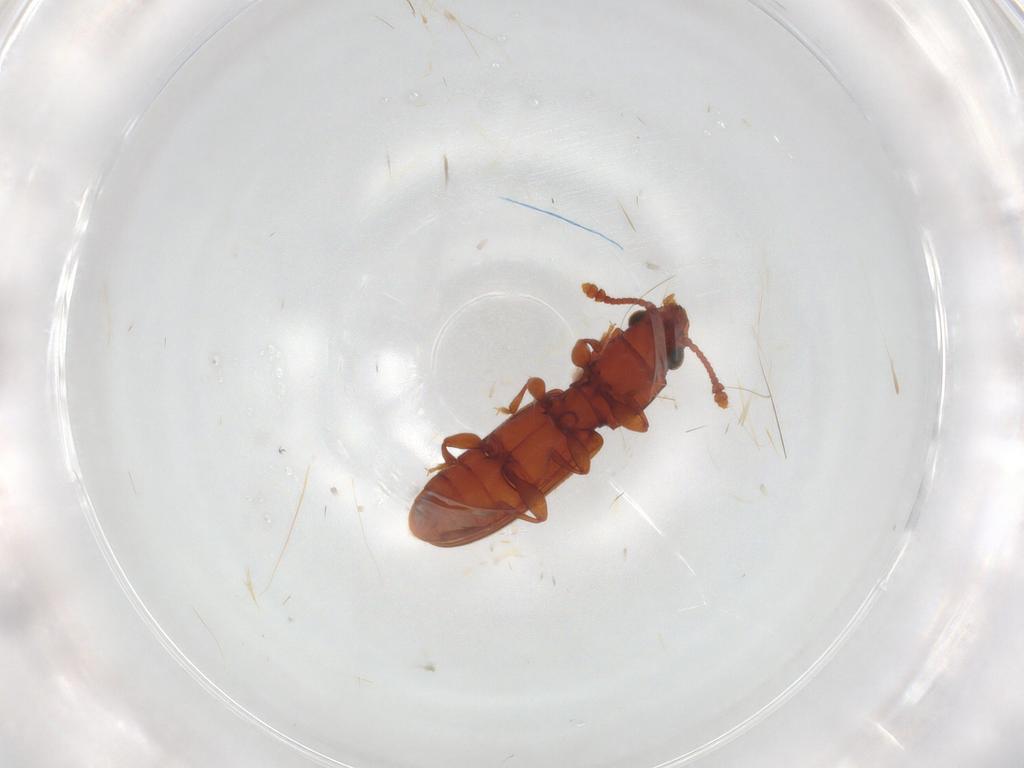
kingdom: Animalia
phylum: Arthropoda
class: Insecta
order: Coleoptera
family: Silvanidae
